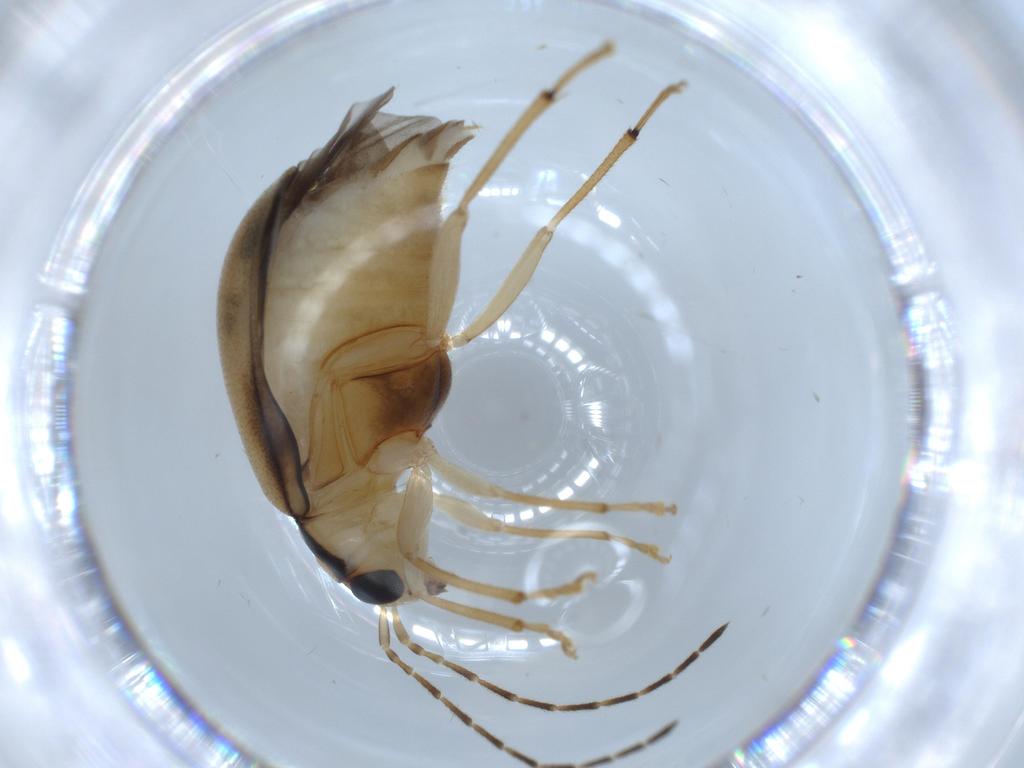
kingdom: Animalia
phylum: Arthropoda
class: Insecta
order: Coleoptera
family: Chrysomelidae
